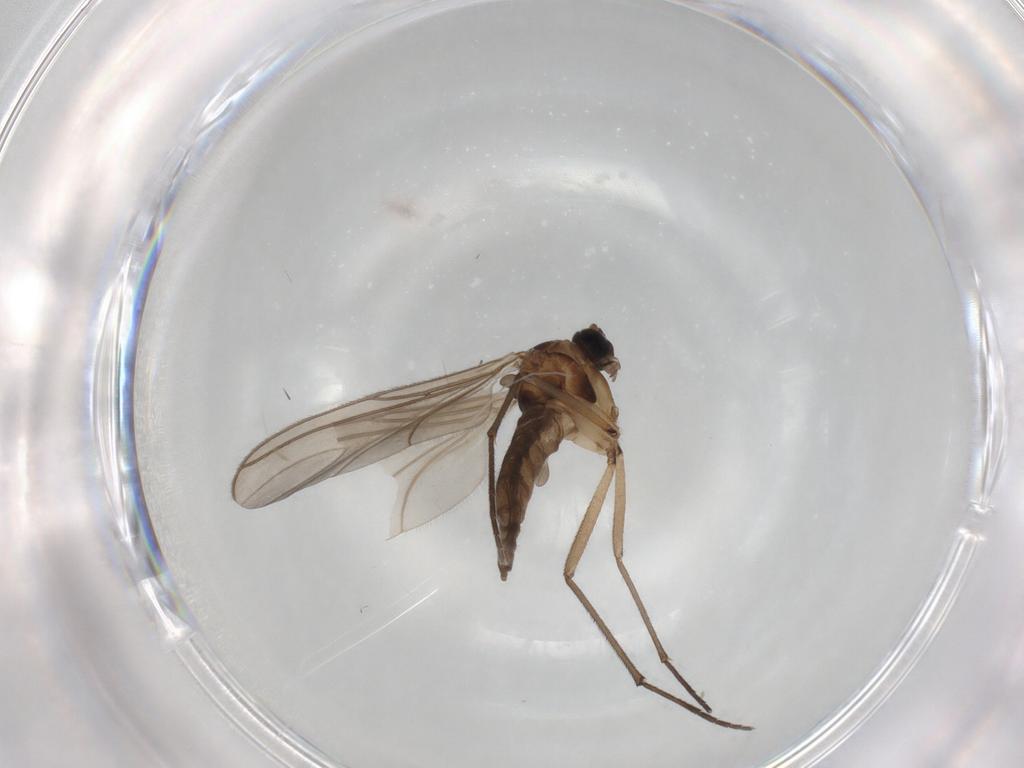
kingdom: Animalia
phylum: Arthropoda
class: Insecta
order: Diptera
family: Sciaridae
